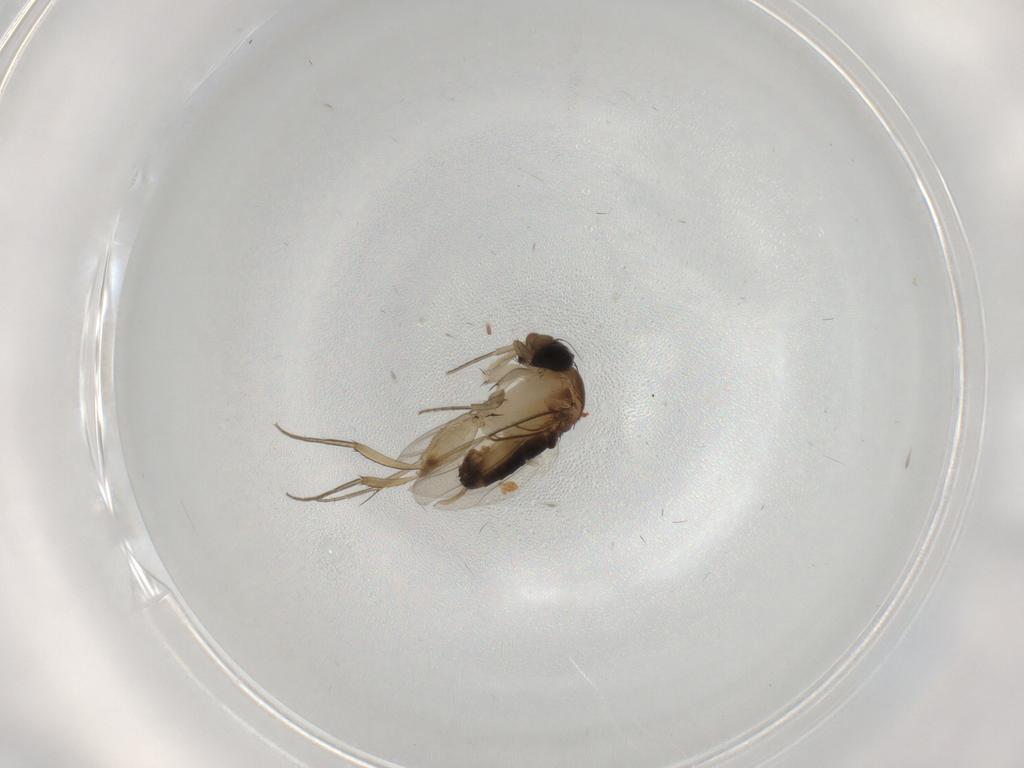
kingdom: Animalia
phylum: Arthropoda
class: Insecta
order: Diptera
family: Phoridae
